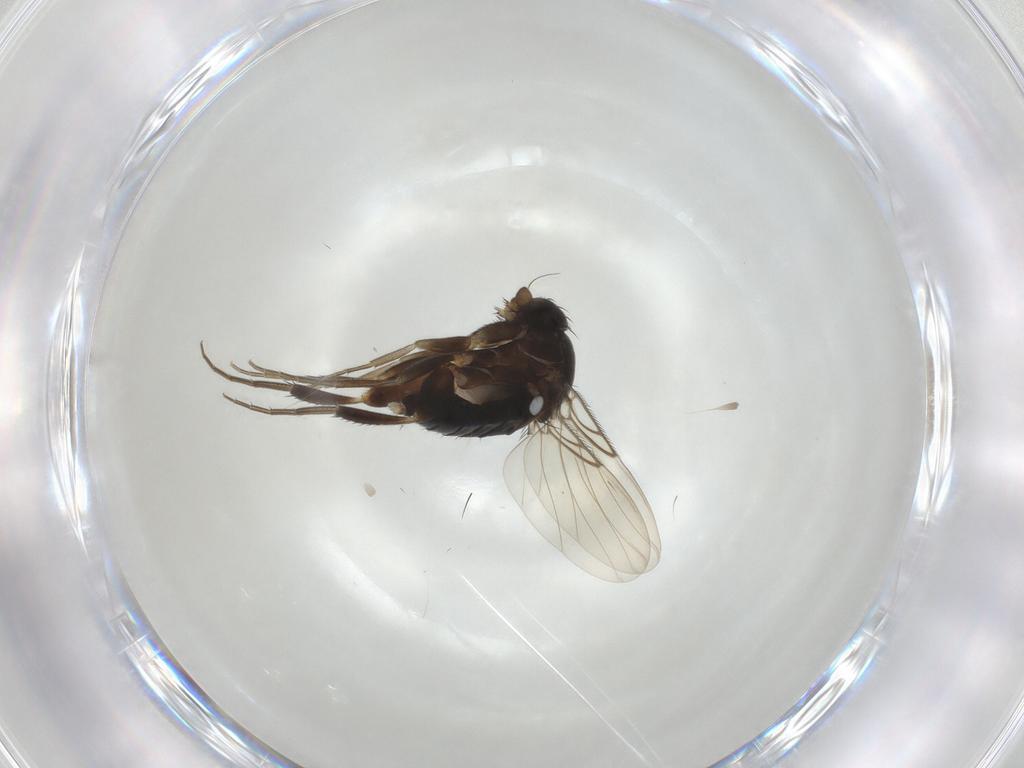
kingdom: Animalia
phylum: Arthropoda
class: Insecta
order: Diptera
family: Phoridae
